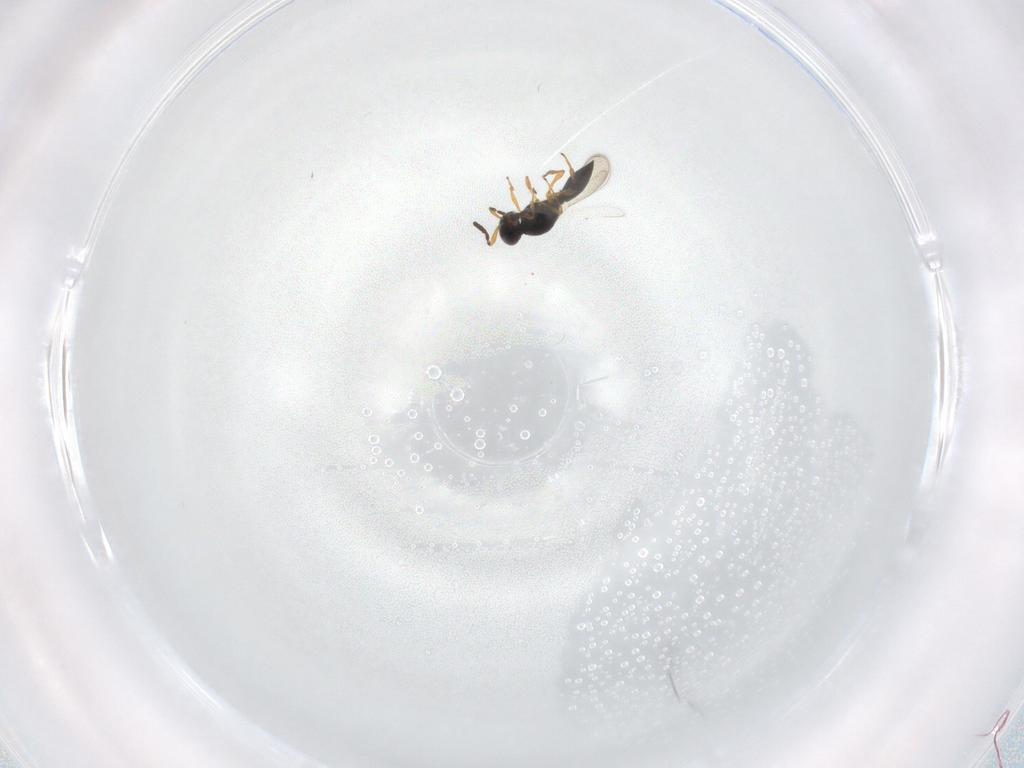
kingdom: Animalia
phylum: Arthropoda
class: Insecta
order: Hymenoptera
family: Platygastridae
